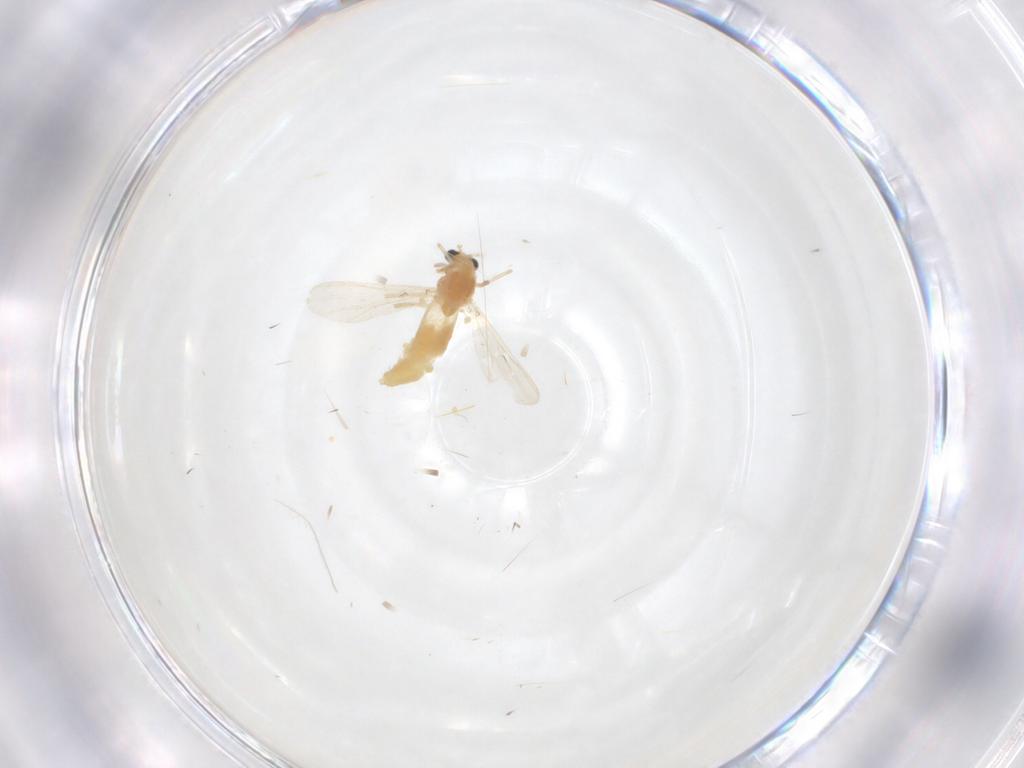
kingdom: Animalia
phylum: Arthropoda
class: Insecta
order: Diptera
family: Chironomidae
